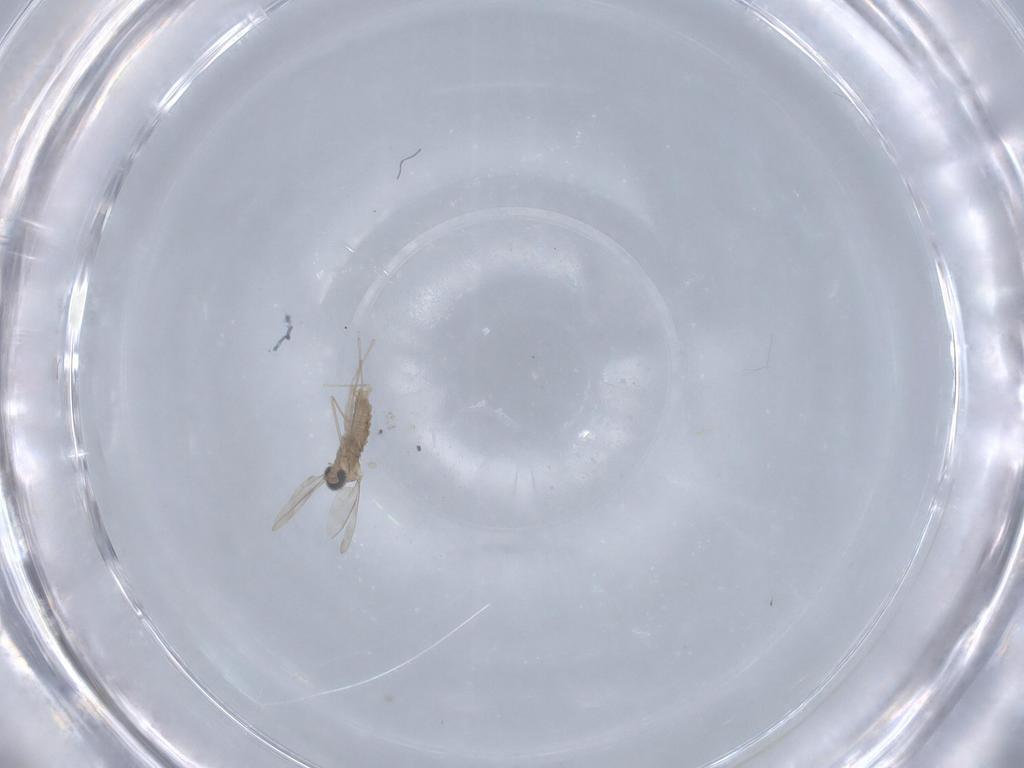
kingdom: Animalia
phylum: Arthropoda
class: Insecta
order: Diptera
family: Cecidomyiidae
